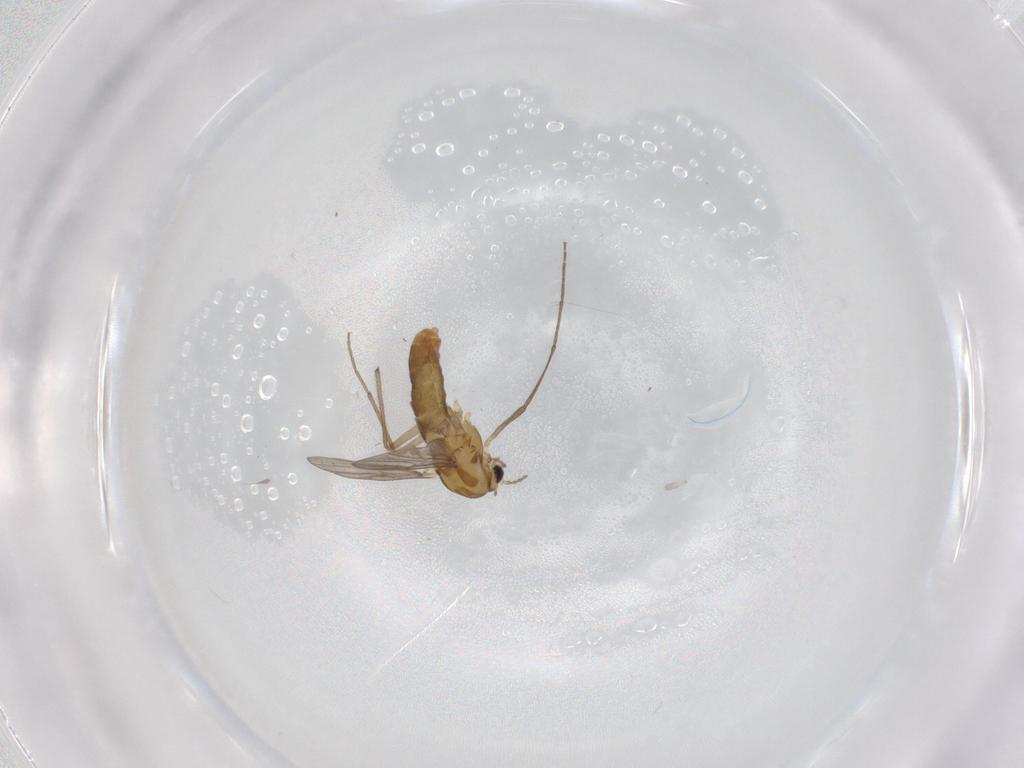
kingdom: Animalia
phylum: Arthropoda
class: Insecta
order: Diptera
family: Chironomidae
